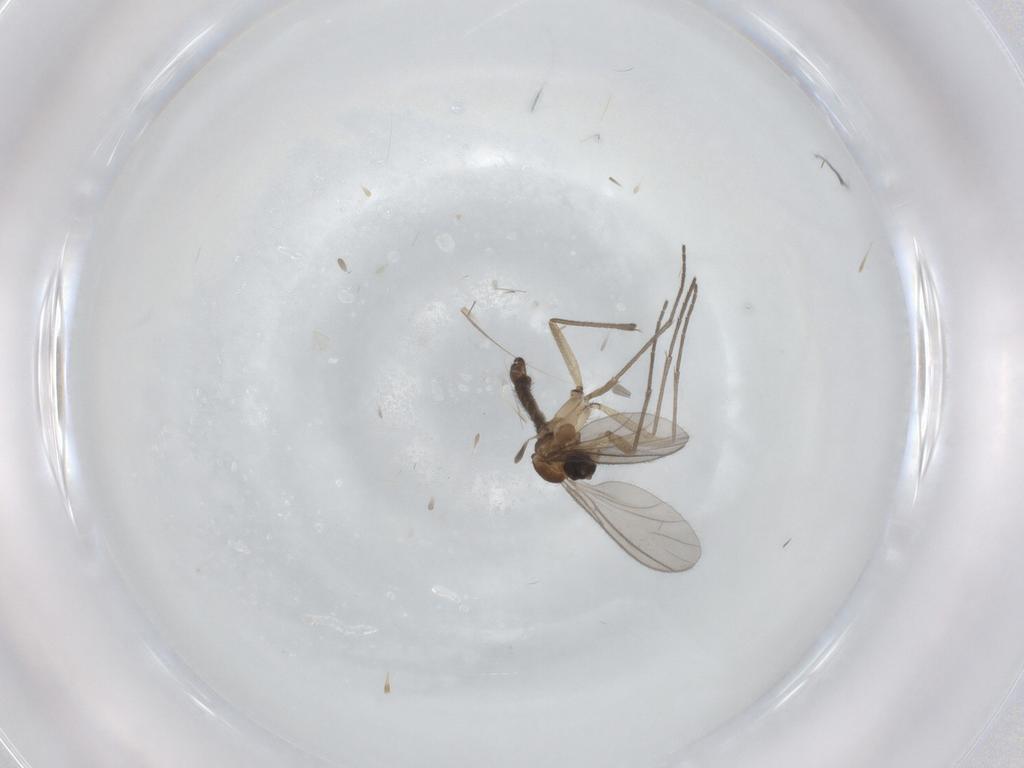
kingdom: Animalia
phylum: Arthropoda
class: Insecta
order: Diptera
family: Sciaridae
